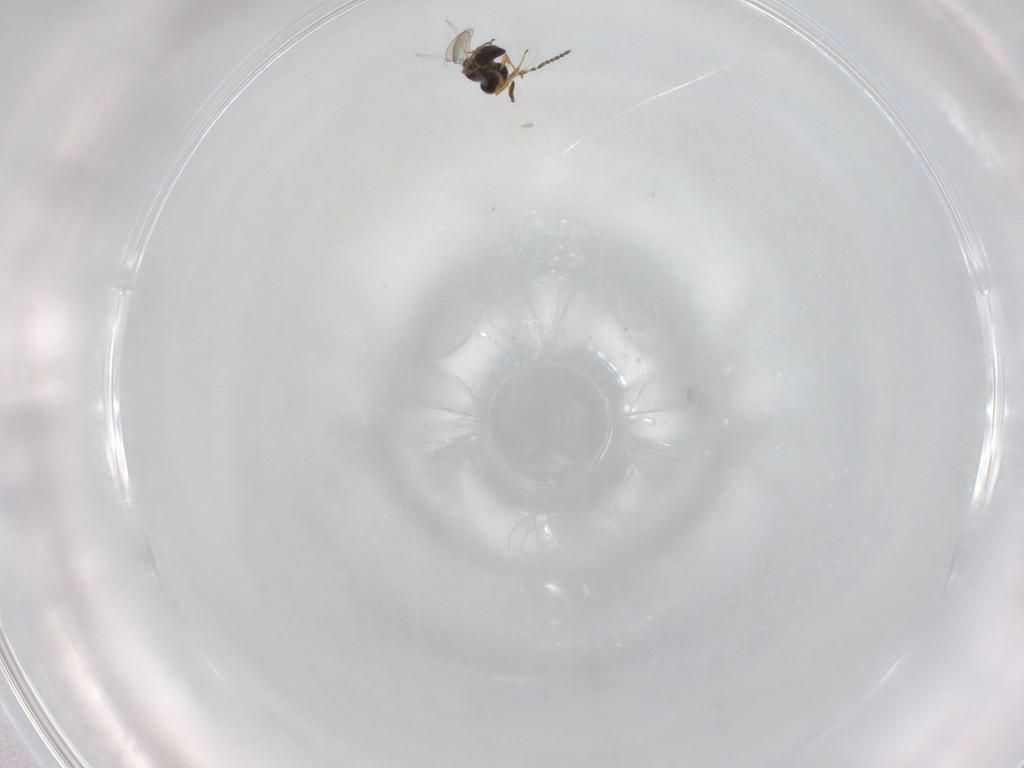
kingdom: Animalia
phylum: Arthropoda
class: Insecta
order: Hymenoptera
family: Platygastridae
